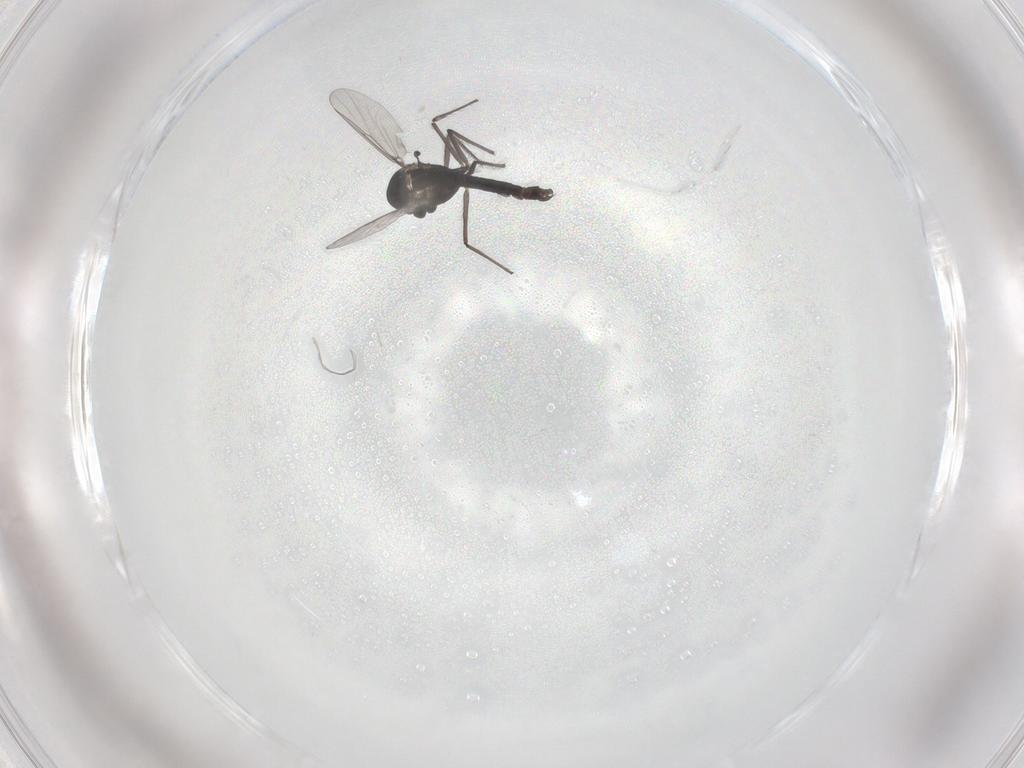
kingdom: Animalia
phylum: Arthropoda
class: Insecta
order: Diptera
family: Chironomidae
